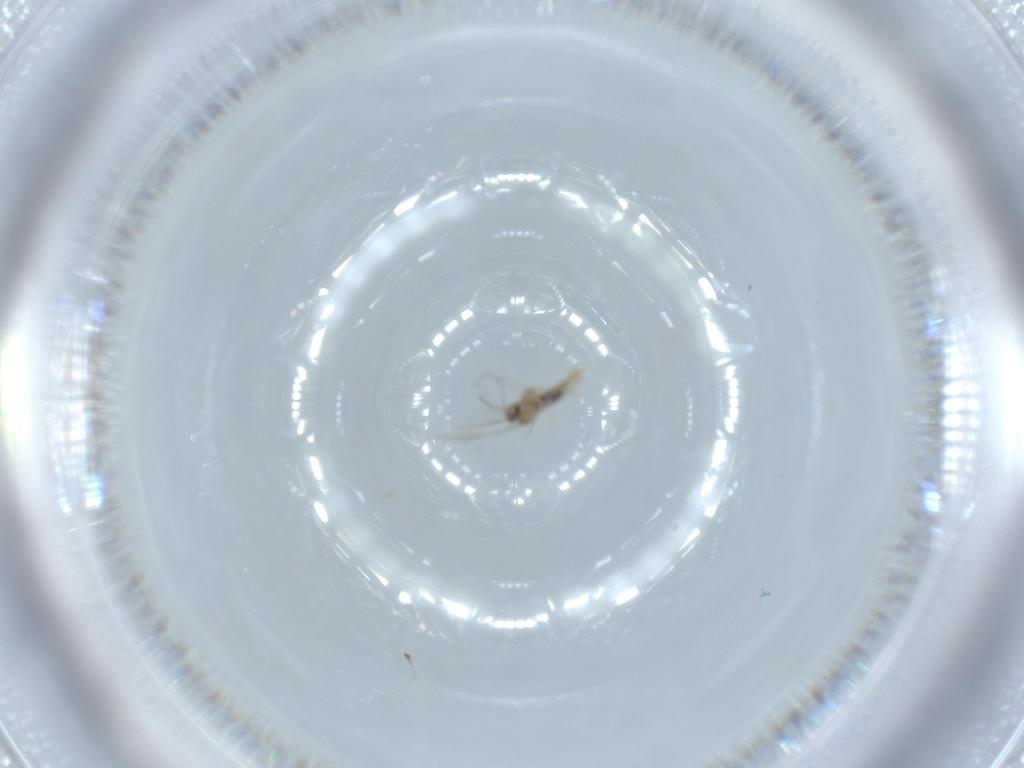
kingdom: Animalia
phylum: Arthropoda
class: Insecta
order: Diptera
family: Cecidomyiidae
